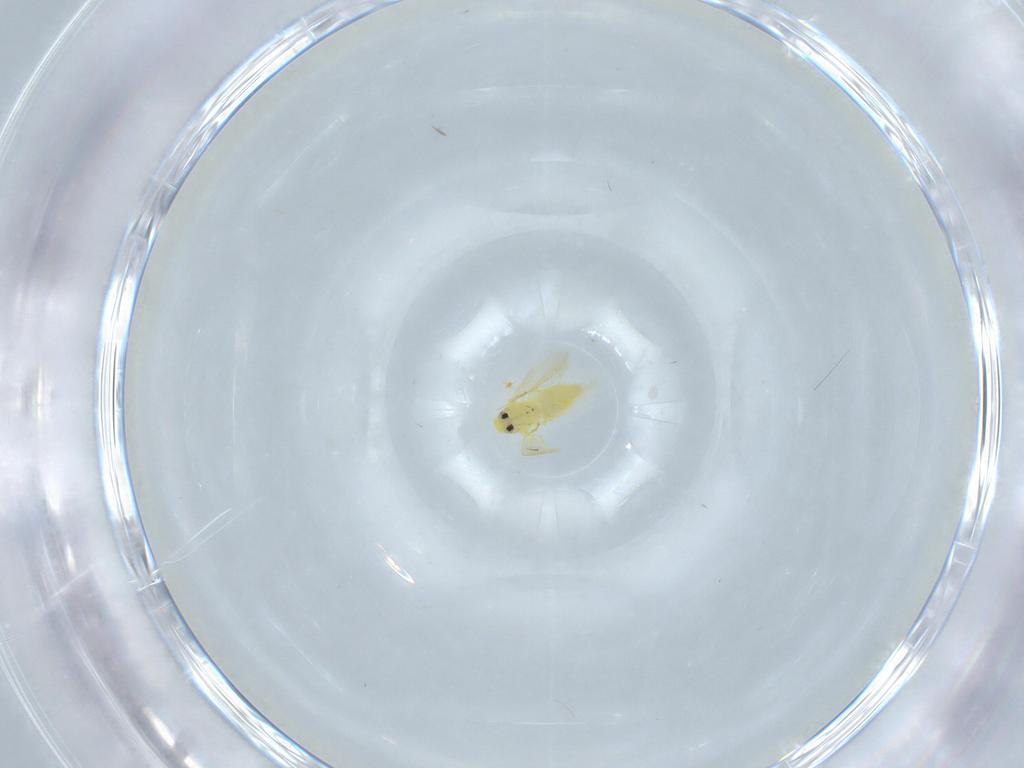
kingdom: Animalia
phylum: Arthropoda
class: Insecta
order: Hemiptera
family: Aleyrodidae
